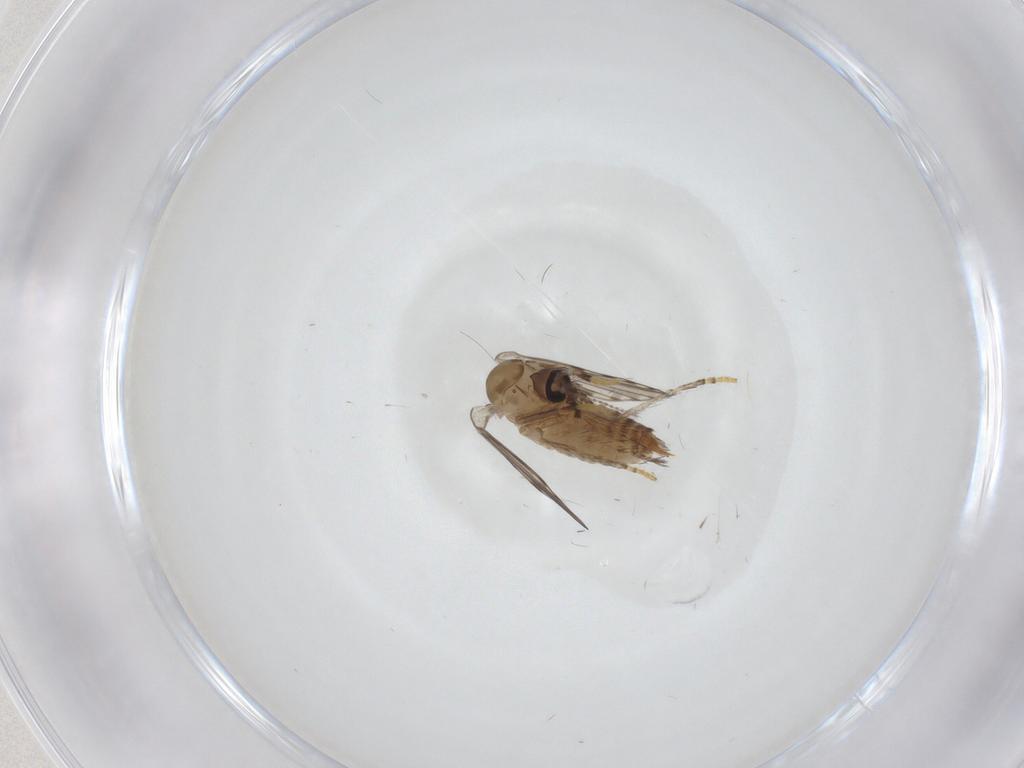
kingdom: Animalia
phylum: Arthropoda
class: Insecta
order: Diptera
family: Psychodidae
